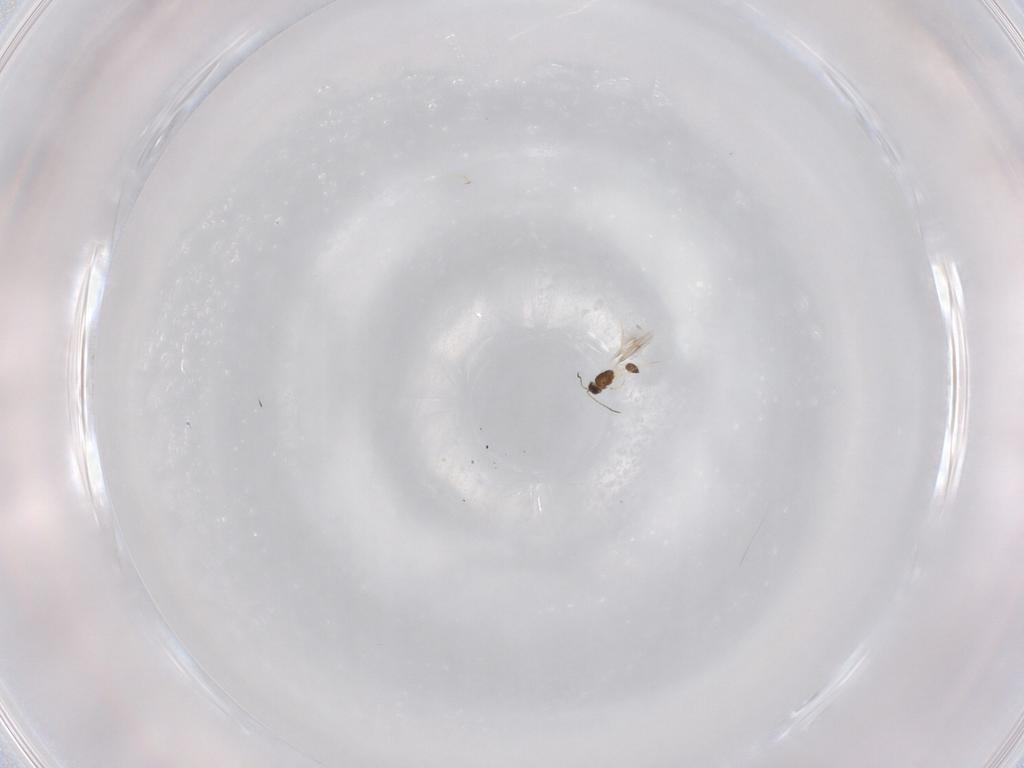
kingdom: Animalia
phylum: Arthropoda
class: Insecta
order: Hymenoptera
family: Mymarommatidae
